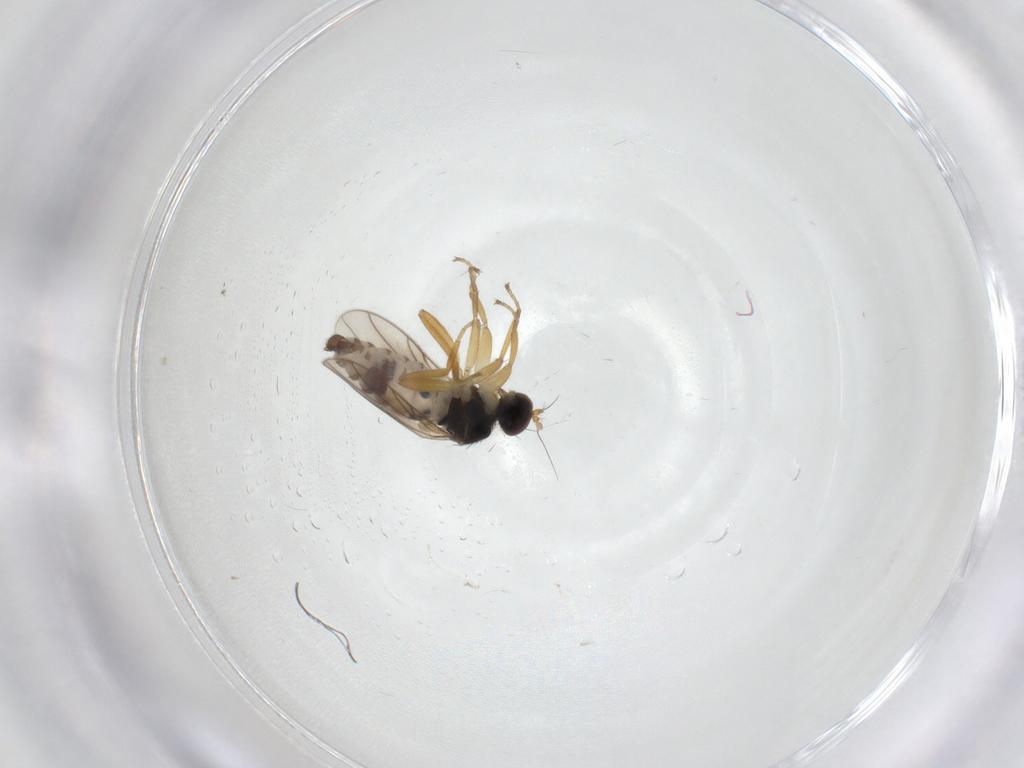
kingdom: Animalia
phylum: Arthropoda
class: Insecta
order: Diptera
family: Hybotidae
